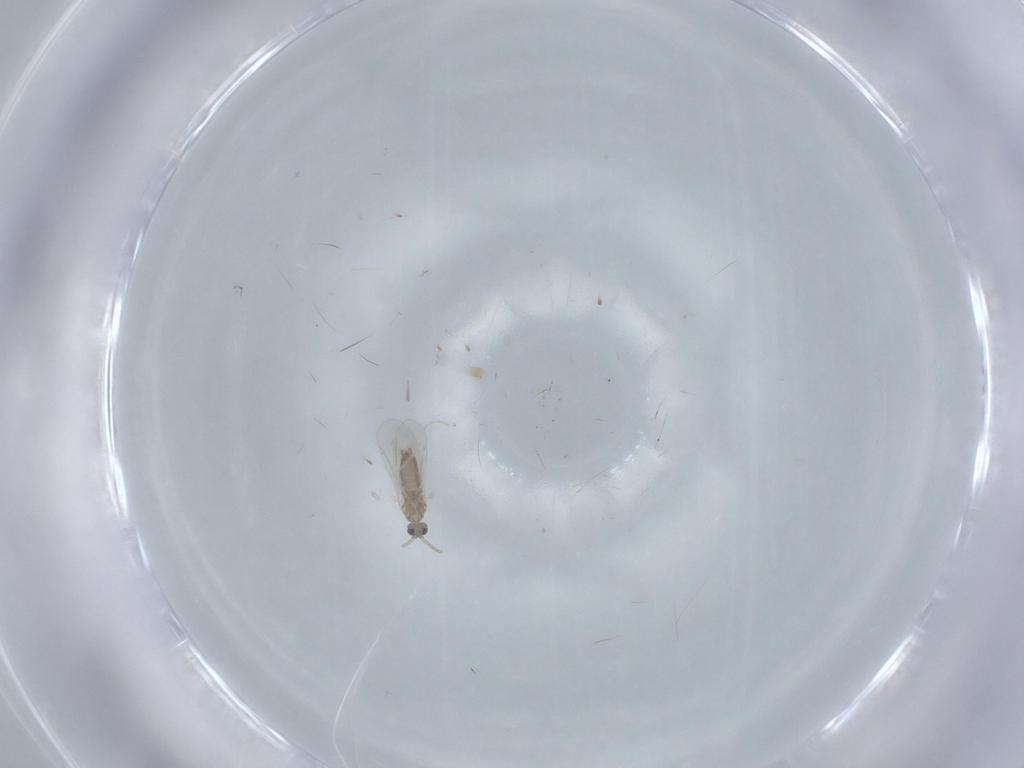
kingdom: Animalia
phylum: Arthropoda
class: Insecta
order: Diptera
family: Cecidomyiidae
